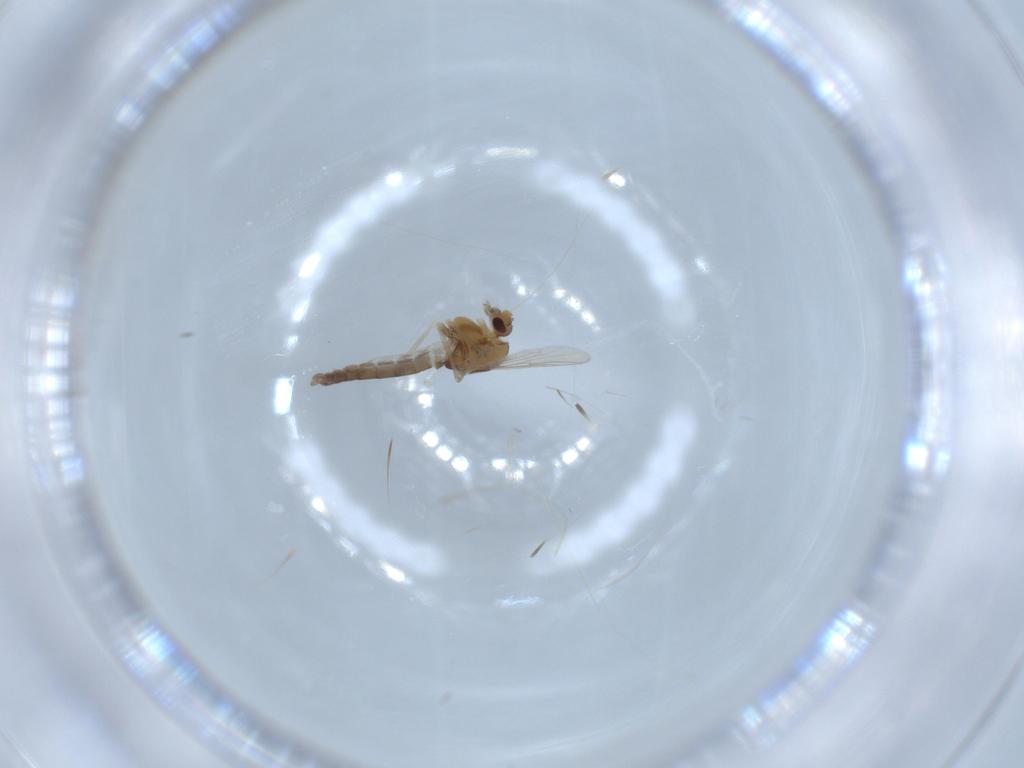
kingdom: Animalia
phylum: Arthropoda
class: Insecta
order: Diptera
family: Chironomidae
